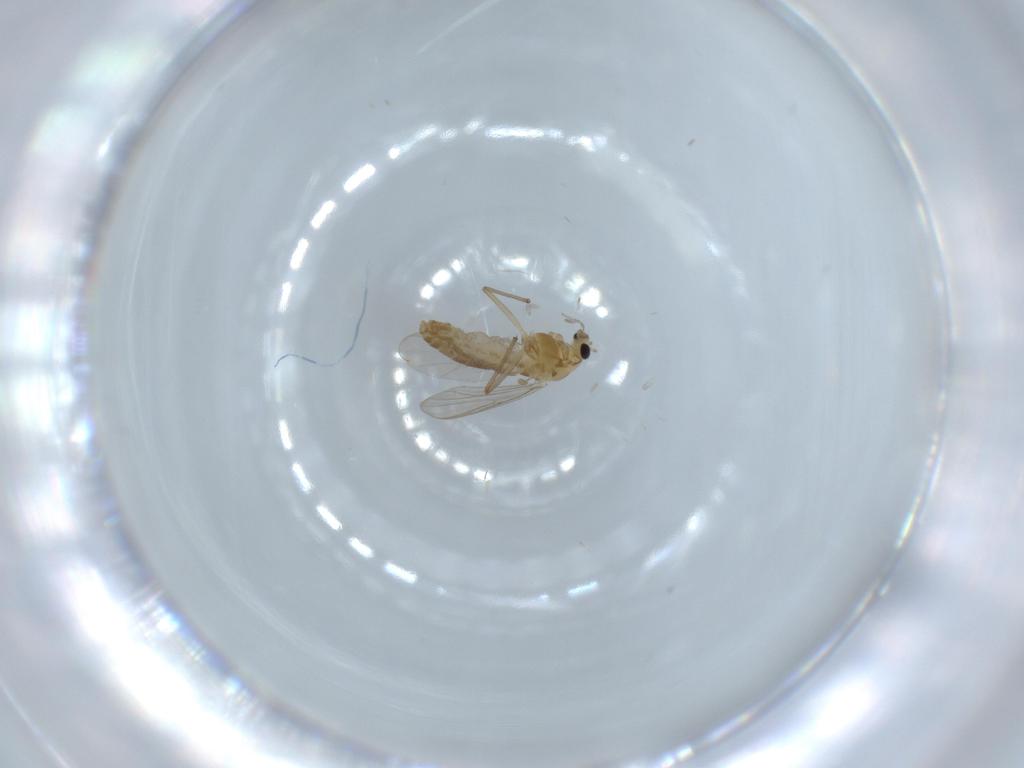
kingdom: Animalia
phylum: Arthropoda
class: Insecta
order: Diptera
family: Chironomidae
